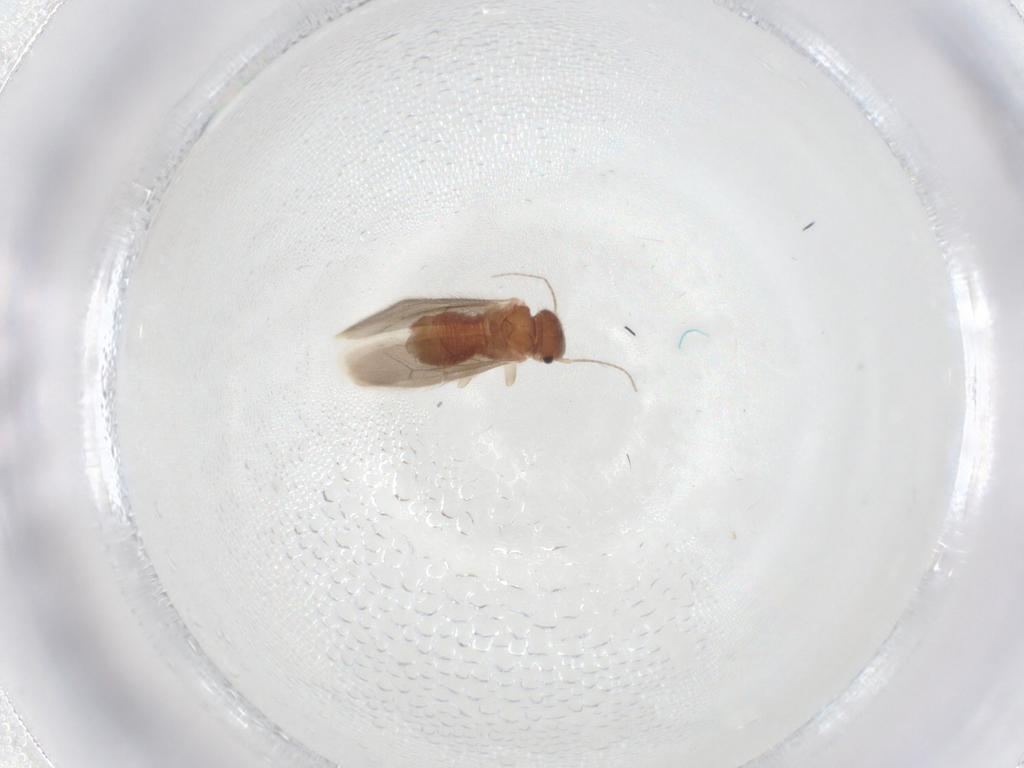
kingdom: Animalia
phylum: Arthropoda
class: Insecta
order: Psocodea
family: Archipsocidae
